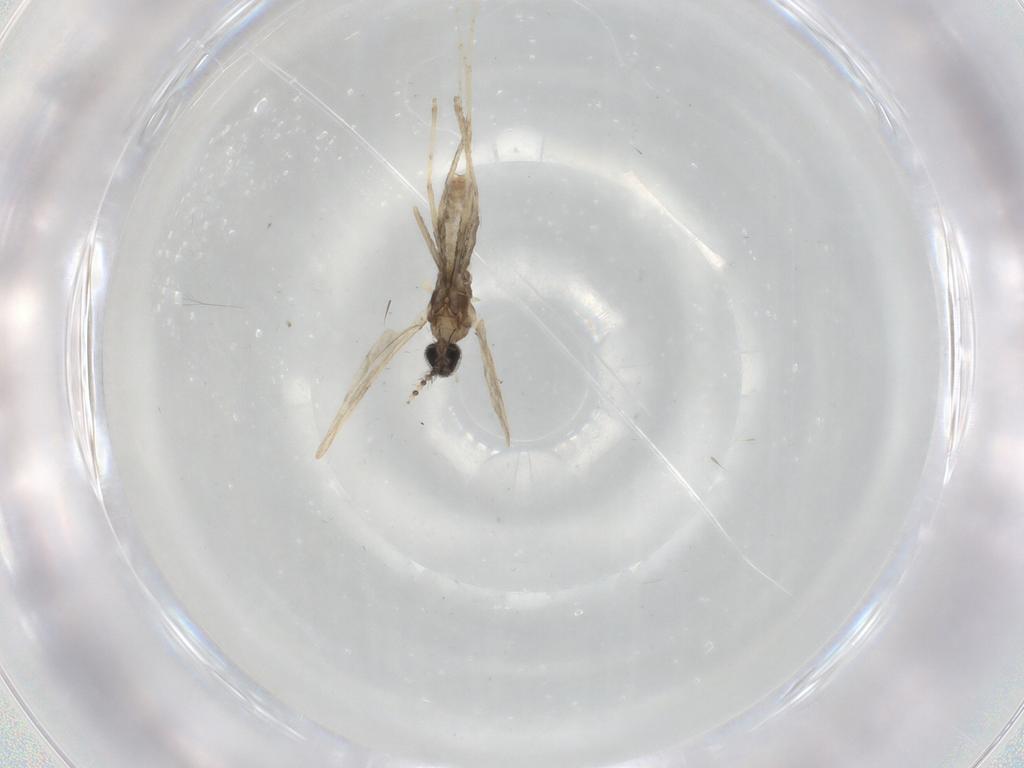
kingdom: Animalia
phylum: Arthropoda
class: Insecta
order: Diptera
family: Cecidomyiidae
